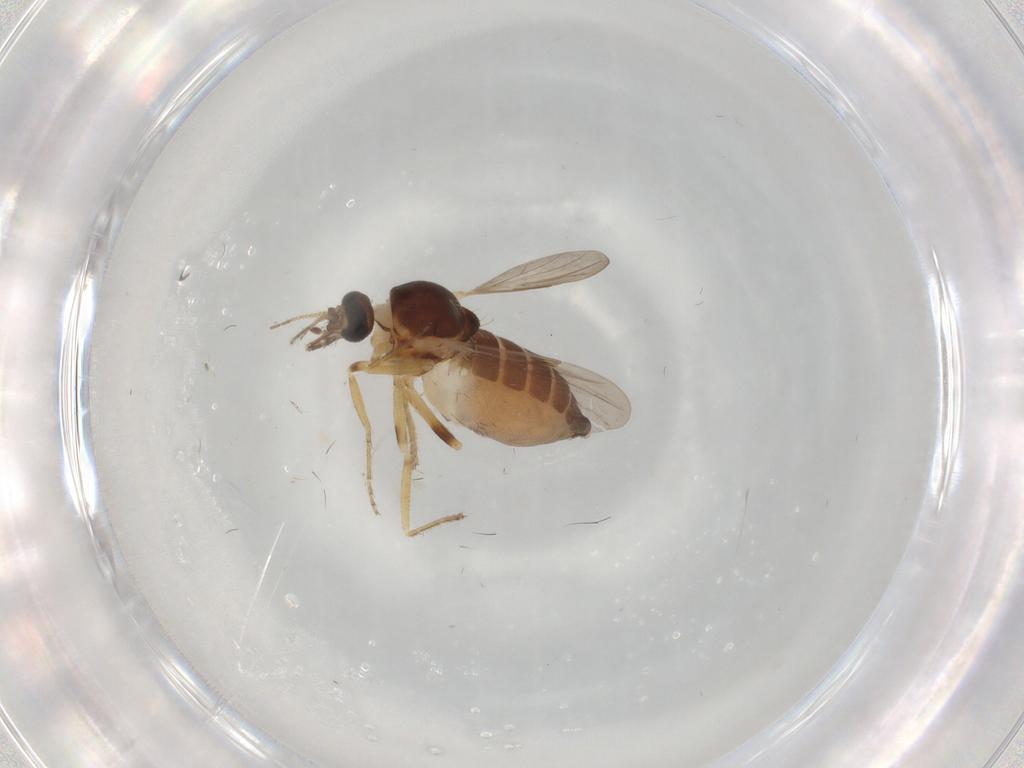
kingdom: Animalia
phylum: Arthropoda
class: Insecta
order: Diptera
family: Ceratopogonidae
